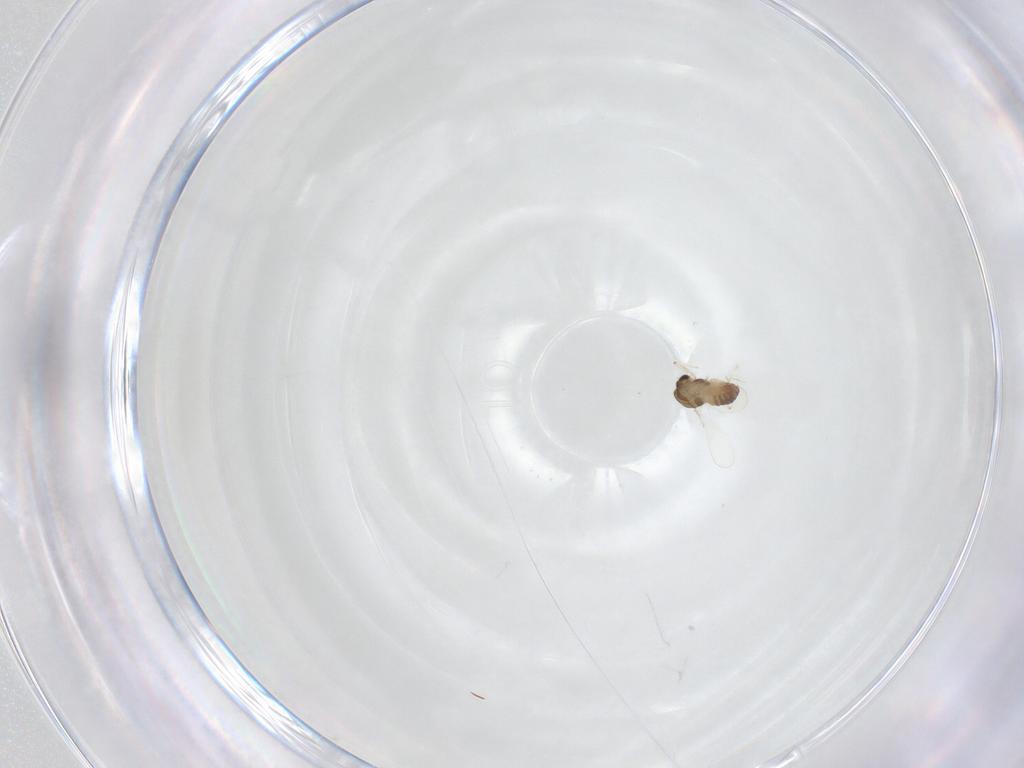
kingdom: Animalia
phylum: Arthropoda
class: Insecta
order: Diptera
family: Chironomidae
